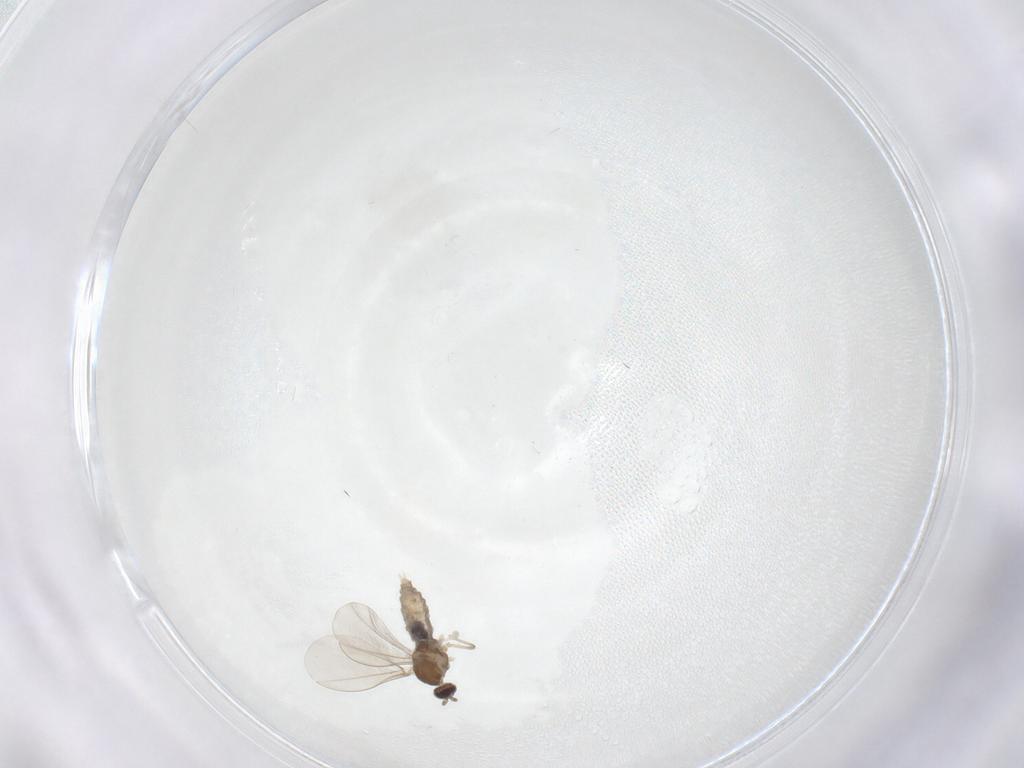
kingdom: Animalia
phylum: Arthropoda
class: Insecta
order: Diptera
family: Cecidomyiidae
